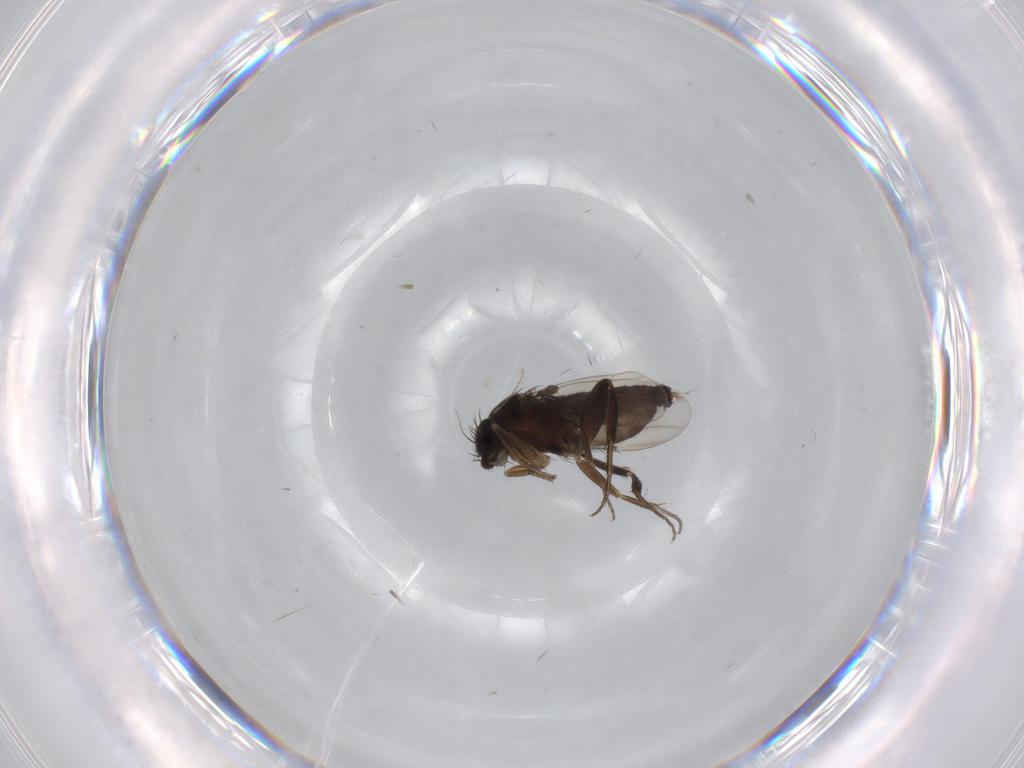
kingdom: Animalia
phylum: Arthropoda
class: Insecta
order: Diptera
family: Phoridae
